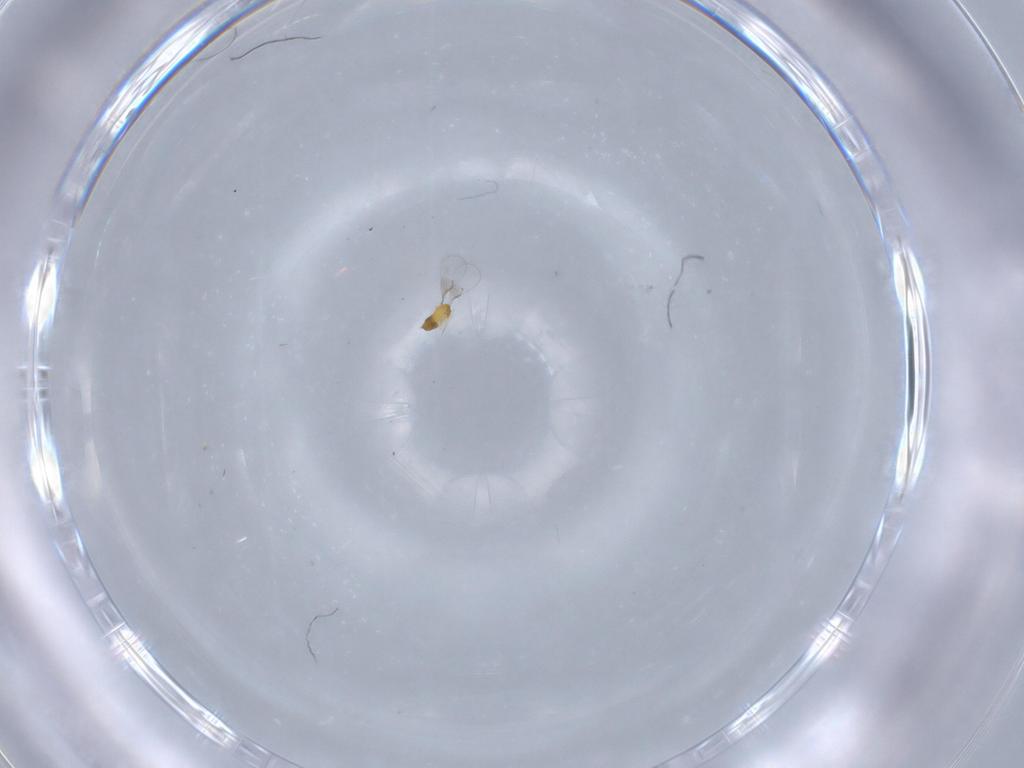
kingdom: Animalia
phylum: Arthropoda
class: Insecta
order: Hymenoptera
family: Trichogrammatidae
